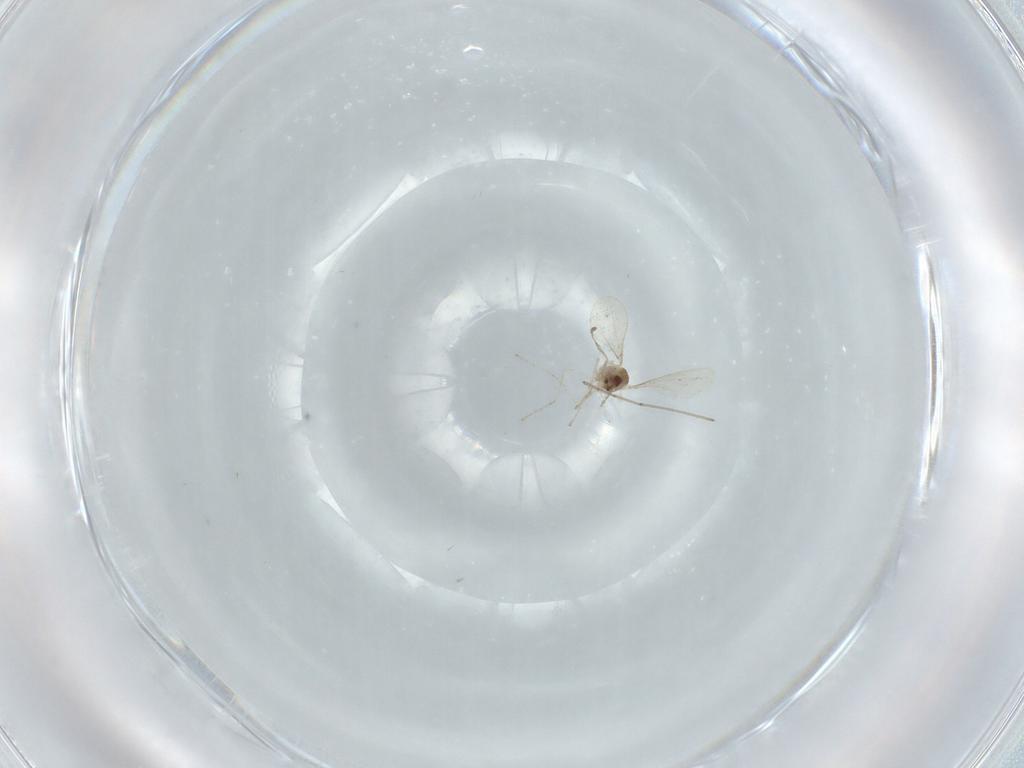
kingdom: Animalia
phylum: Arthropoda
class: Insecta
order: Diptera
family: Cecidomyiidae
